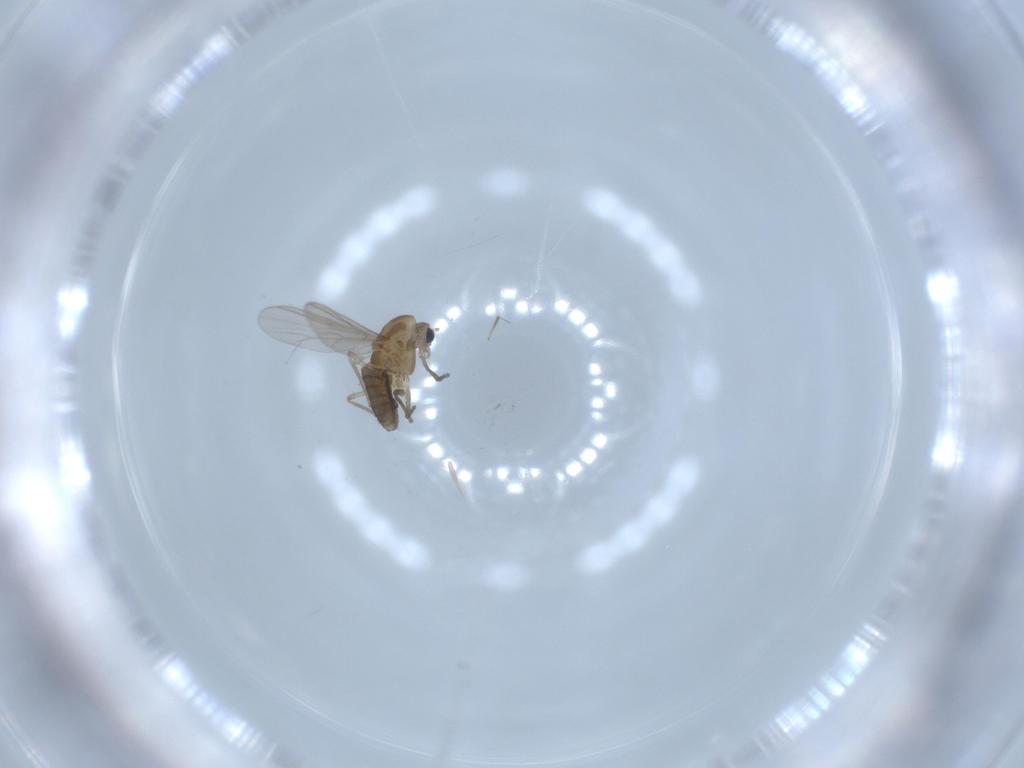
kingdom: Animalia
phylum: Arthropoda
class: Insecta
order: Diptera
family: Chironomidae
